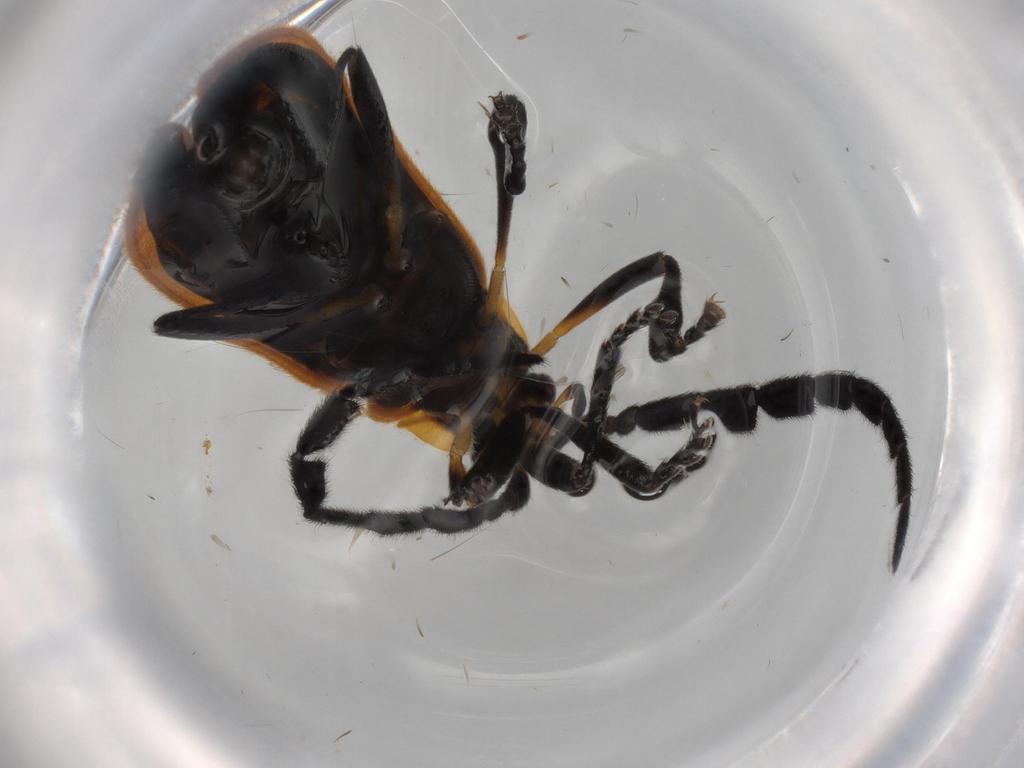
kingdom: Animalia
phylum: Arthropoda
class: Insecta
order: Coleoptera
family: Lycidae
